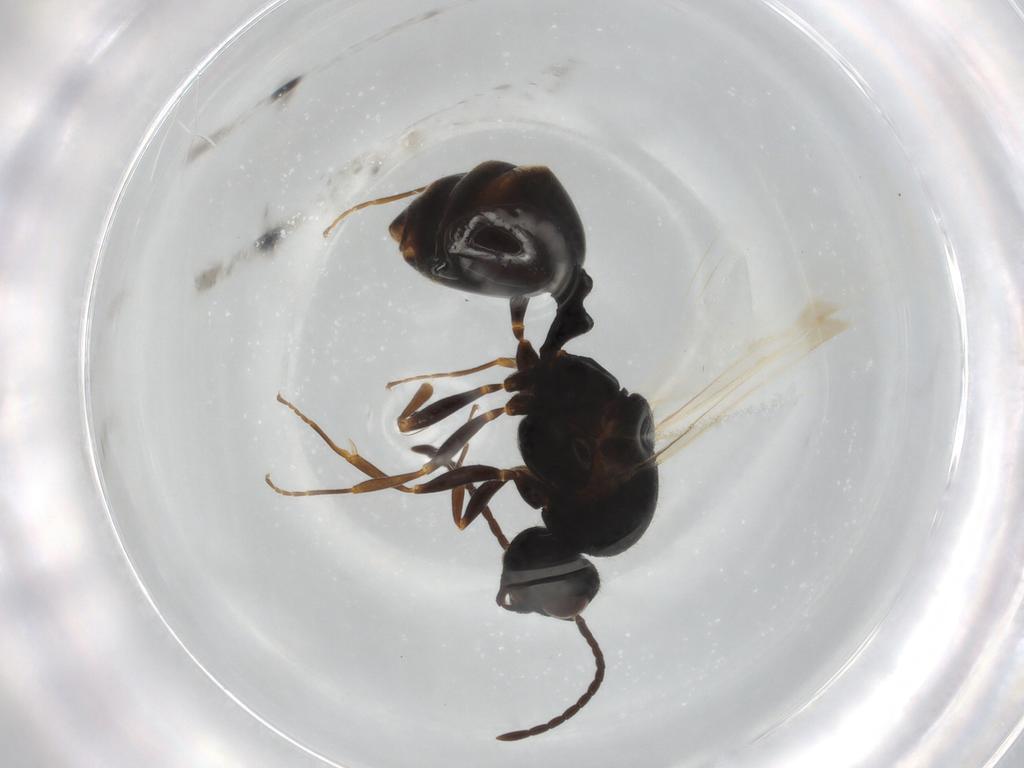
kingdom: Animalia
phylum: Arthropoda
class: Insecta
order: Hymenoptera
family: Formicidae
